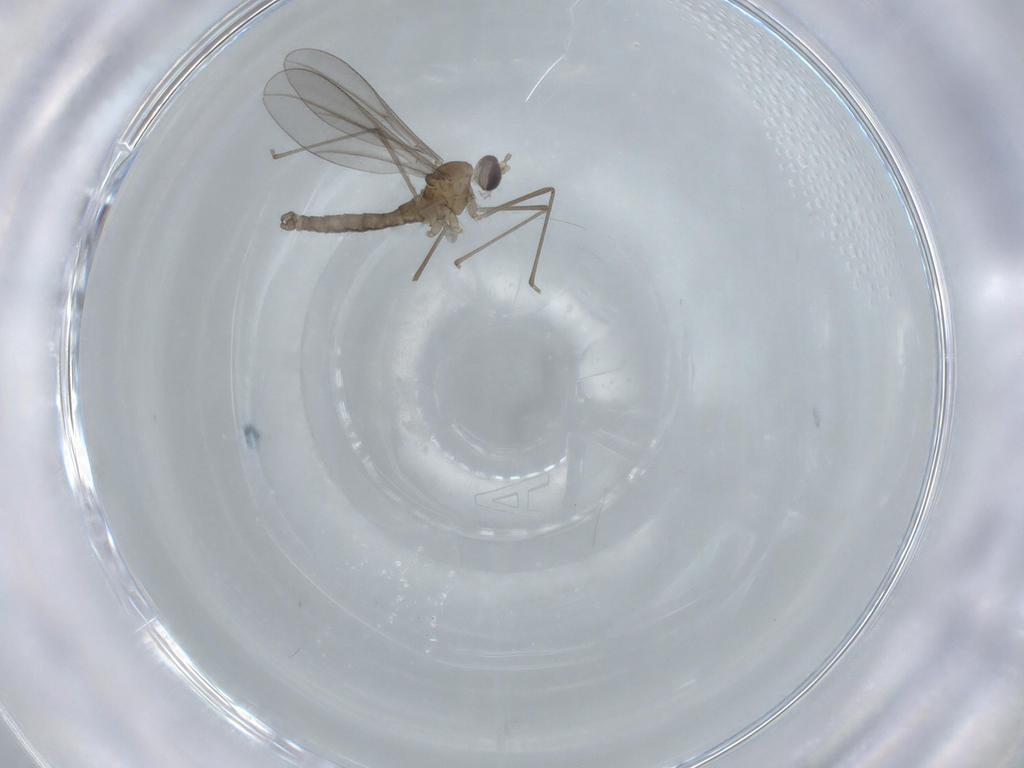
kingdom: Animalia
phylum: Arthropoda
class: Insecta
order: Diptera
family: Cecidomyiidae
